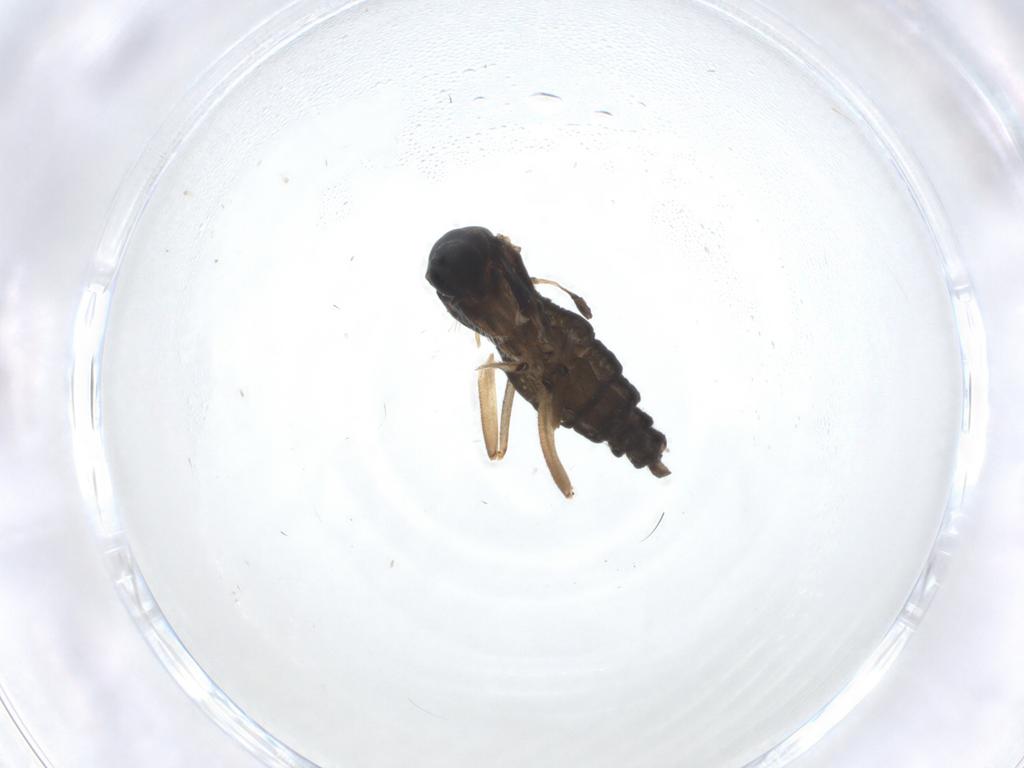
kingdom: Animalia
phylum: Arthropoda
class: Insecta
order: Diptera
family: Sciaridae
